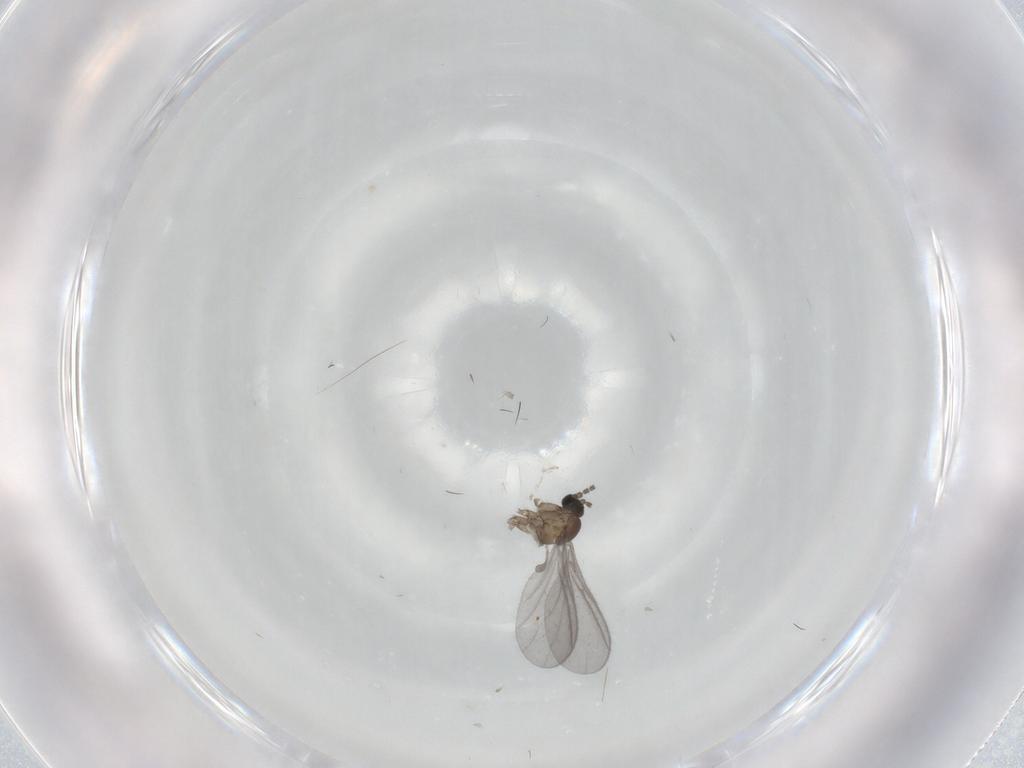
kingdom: Animalia
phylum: Arthropoda
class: Insecta
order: Diptera
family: Sciaridae
